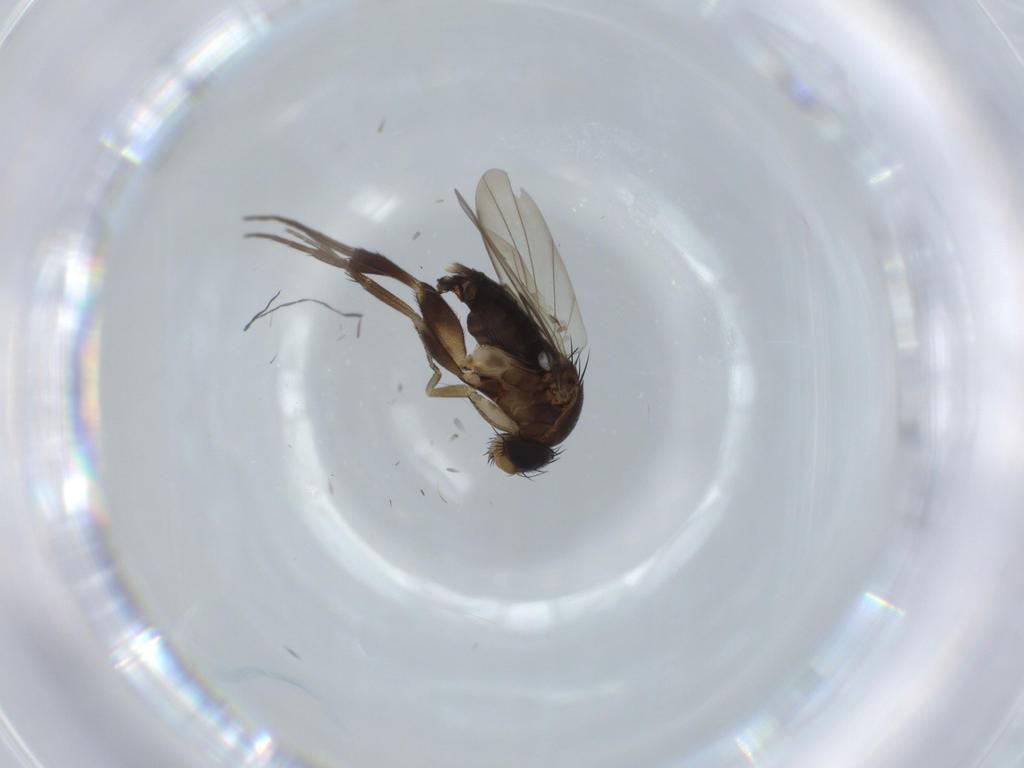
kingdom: Animalia
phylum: Arthropoda
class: Insecta
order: Diptera
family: Phoridae
